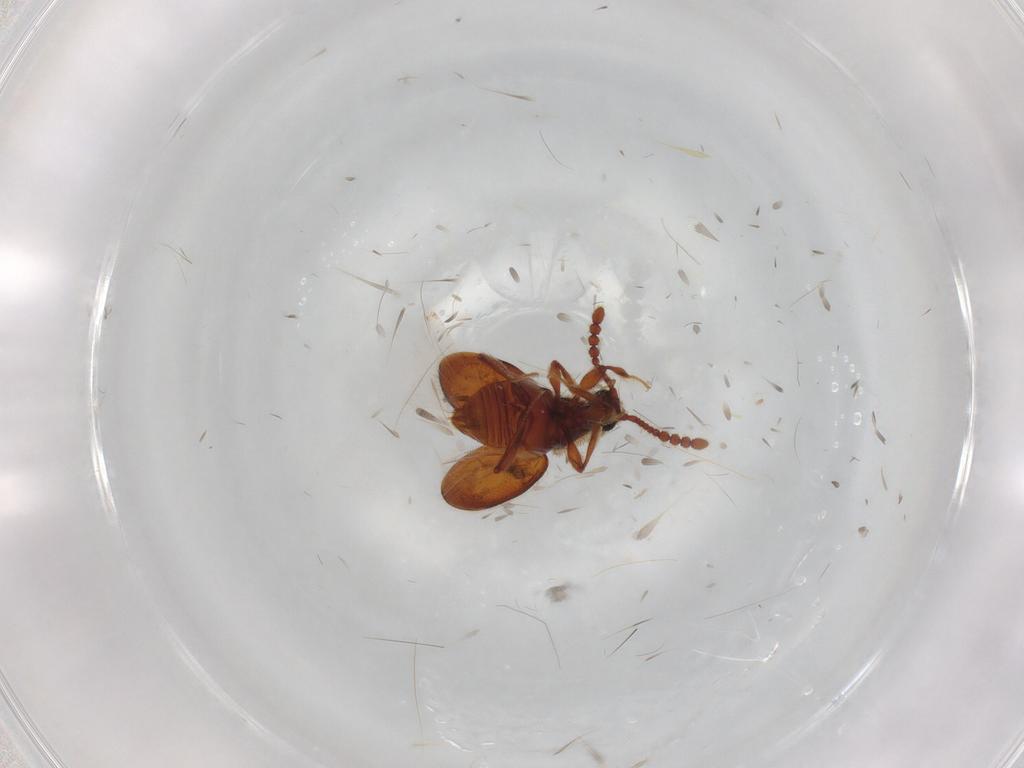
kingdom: Animalia
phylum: Arthropoda
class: Insecta
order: Coleoptera
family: Staphylinidae
